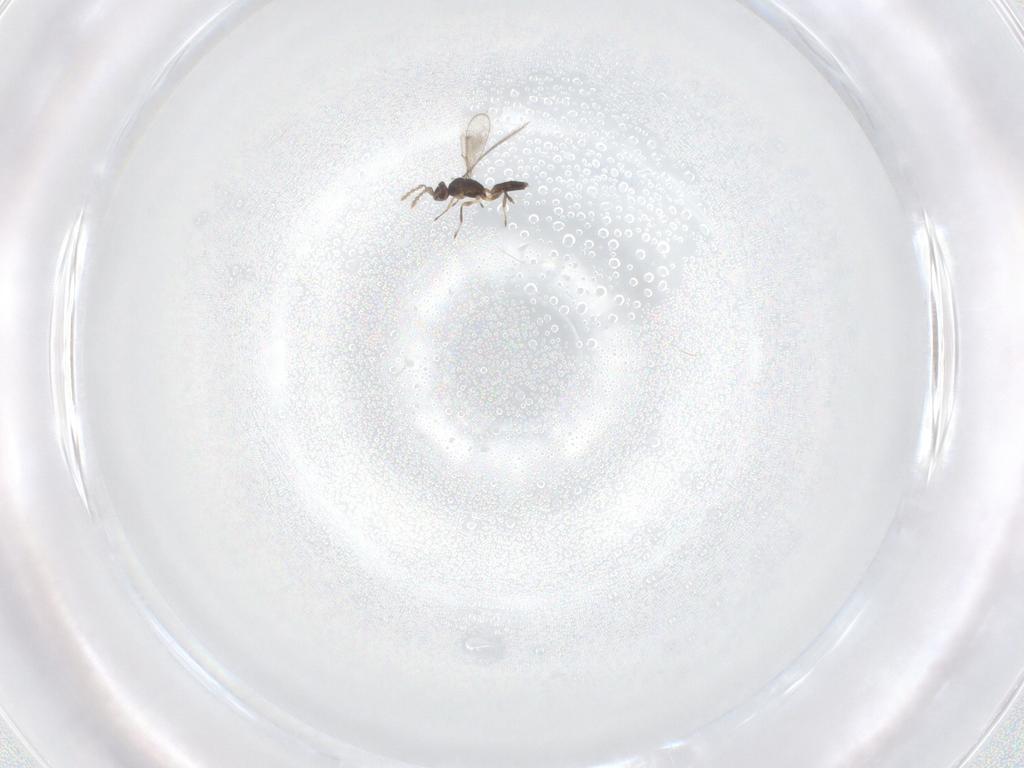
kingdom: Animalia
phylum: Arthropoda
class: Insecta
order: Hymenoptera
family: Eulophidae
